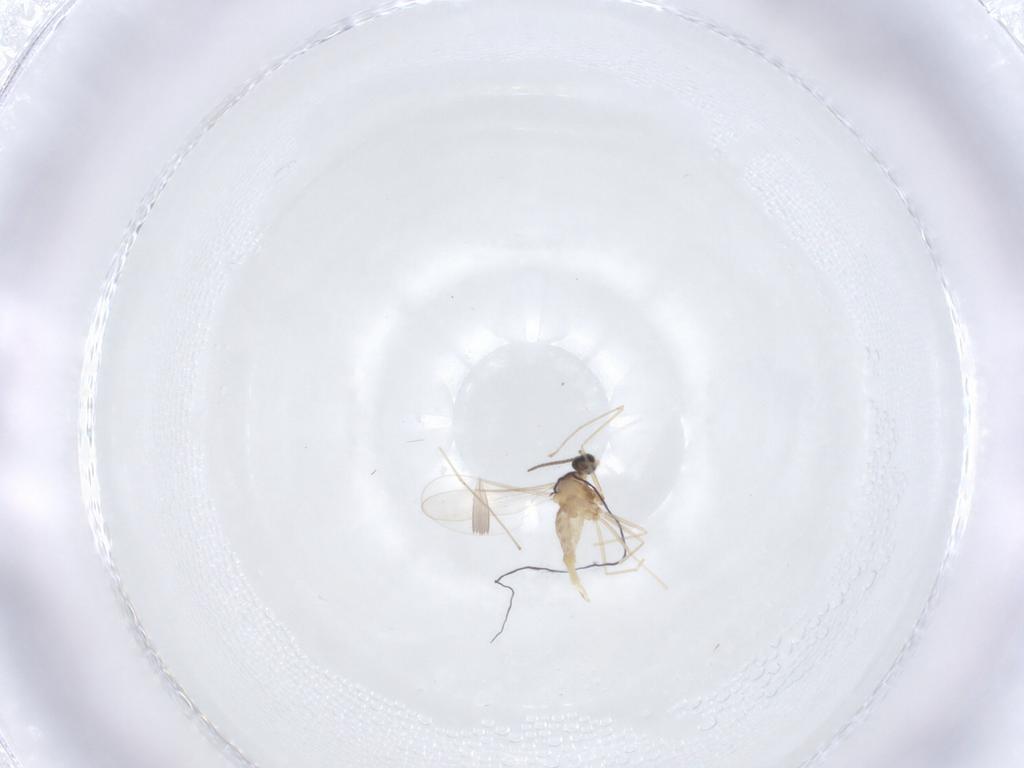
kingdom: Animalia
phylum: Arthropoda
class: Insecta
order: Diptera
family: Cecidomyiidae
